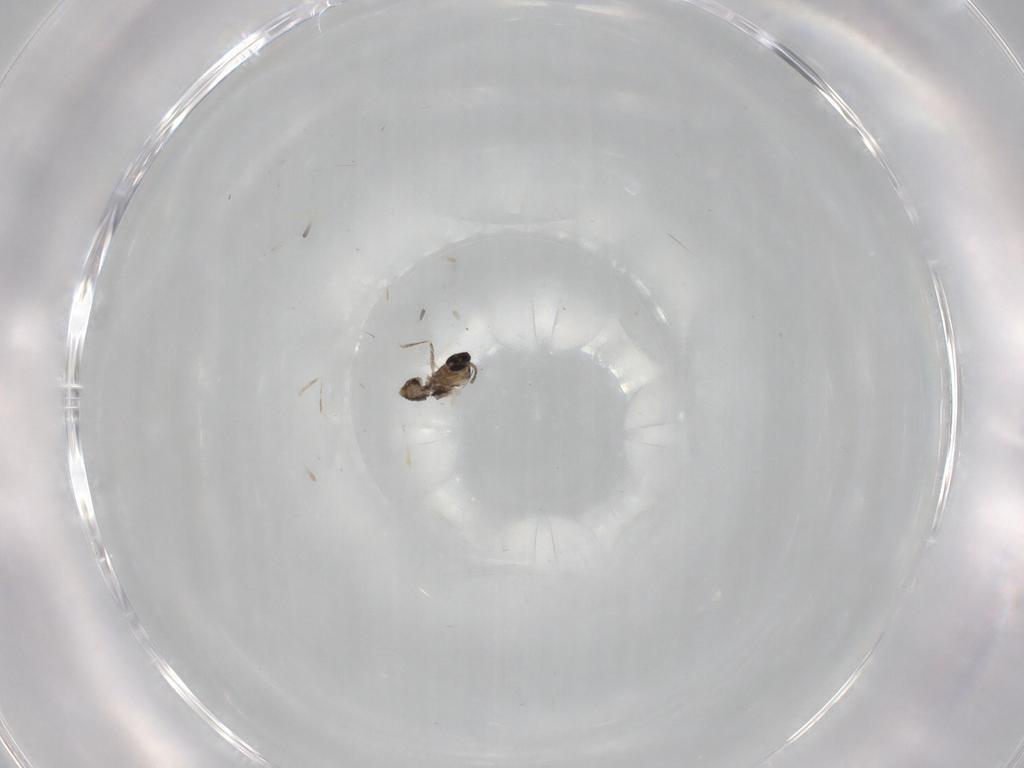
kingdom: Animalia
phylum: Arthropoda
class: Insecta
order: Diptera
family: Cecidomyiidae
